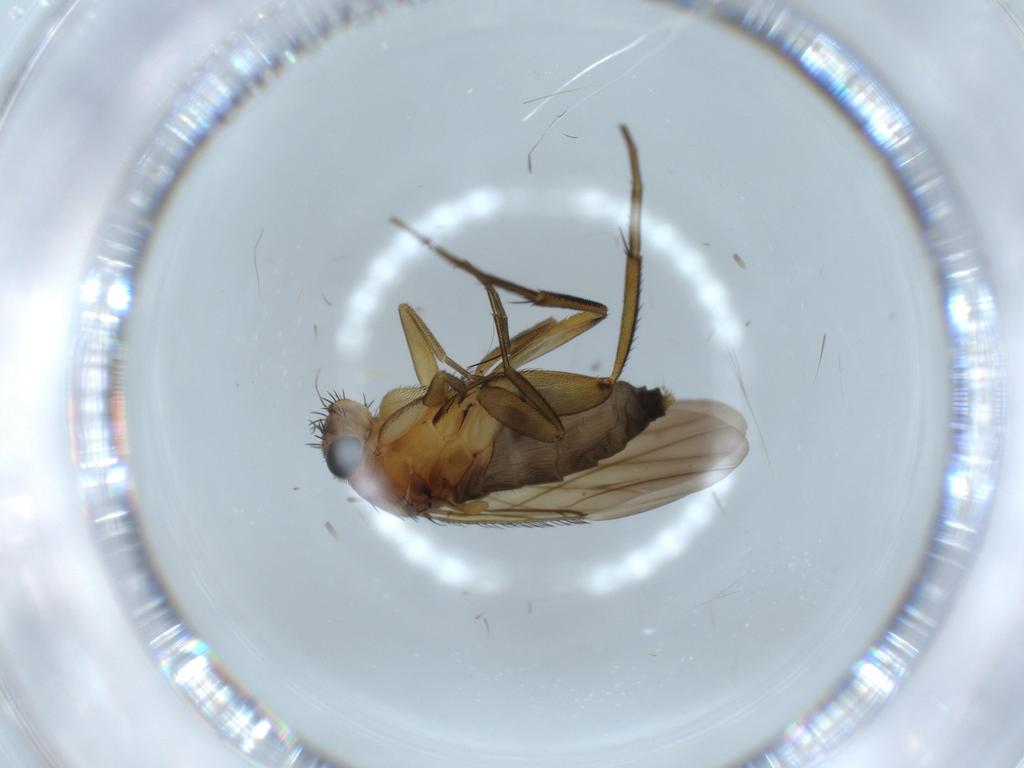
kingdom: Animalia
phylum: Arthropoda
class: Insecta
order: Diptera
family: Phoridae
